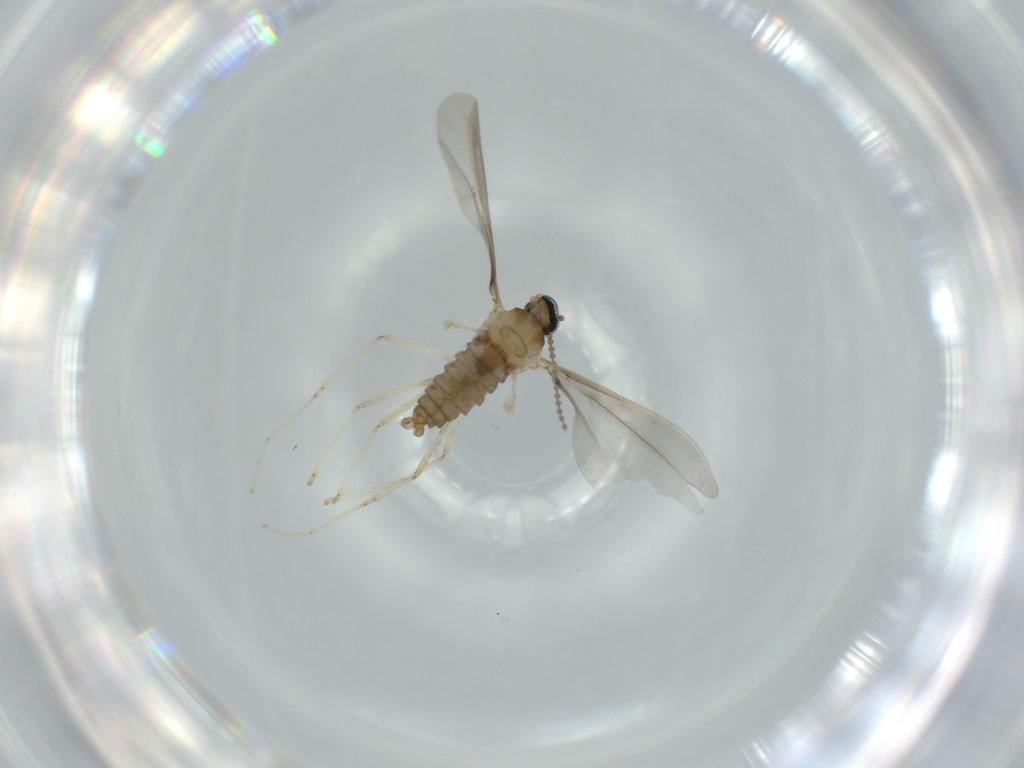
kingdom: Animalia
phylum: Arthropoda
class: Insecta
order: Diptera
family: Cecidomyiidae
